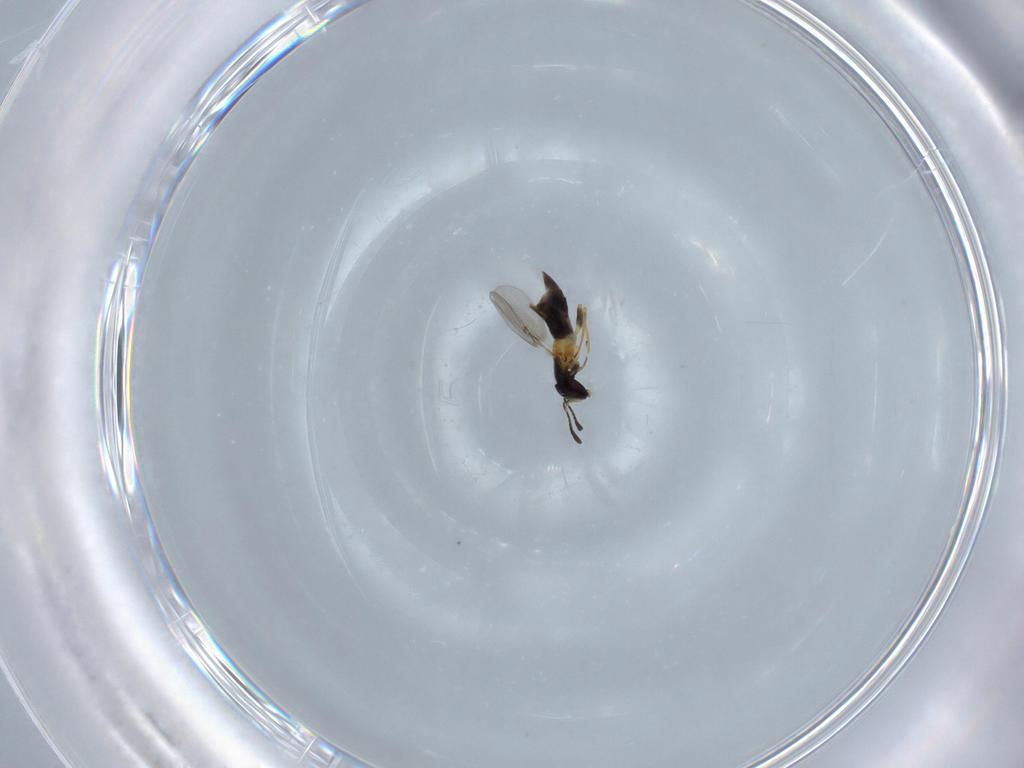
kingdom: Animalia
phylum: Arthropoda
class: Insecta
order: Hymenoptera
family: Encyrtidae
